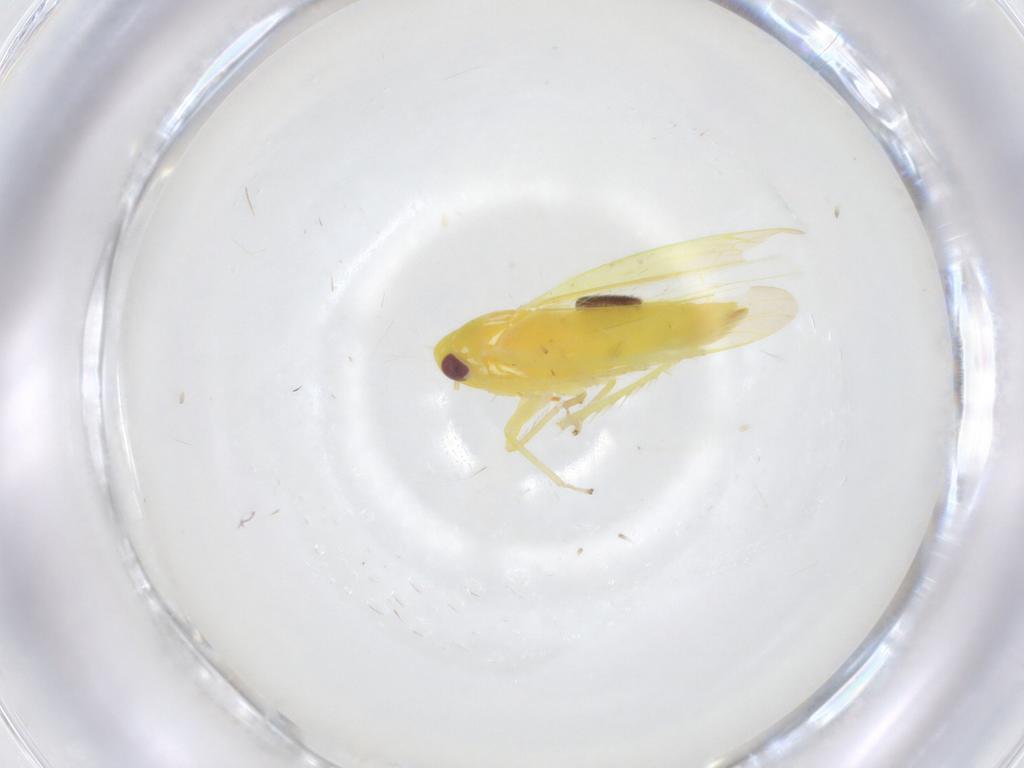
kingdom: Animalia
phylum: Arthropoda
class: Insecta
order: Hemiptera
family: Cicadellidae
